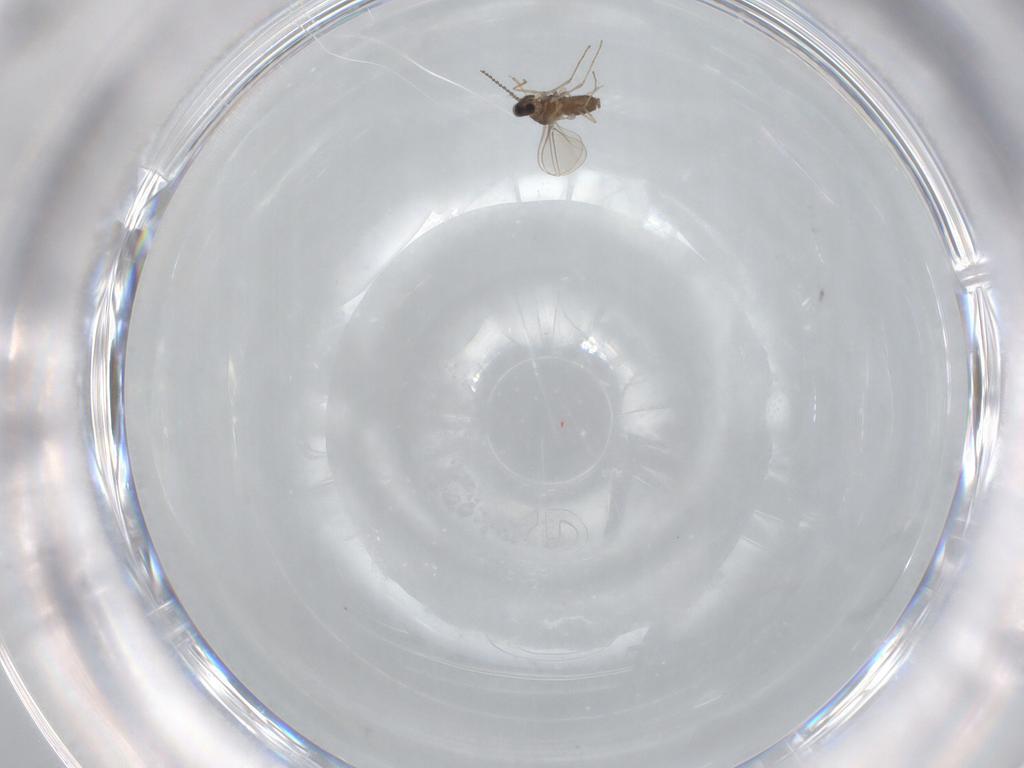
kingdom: Animalia
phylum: Arthropoda
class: Insecta
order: Diptera
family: Cecidomyiidae
